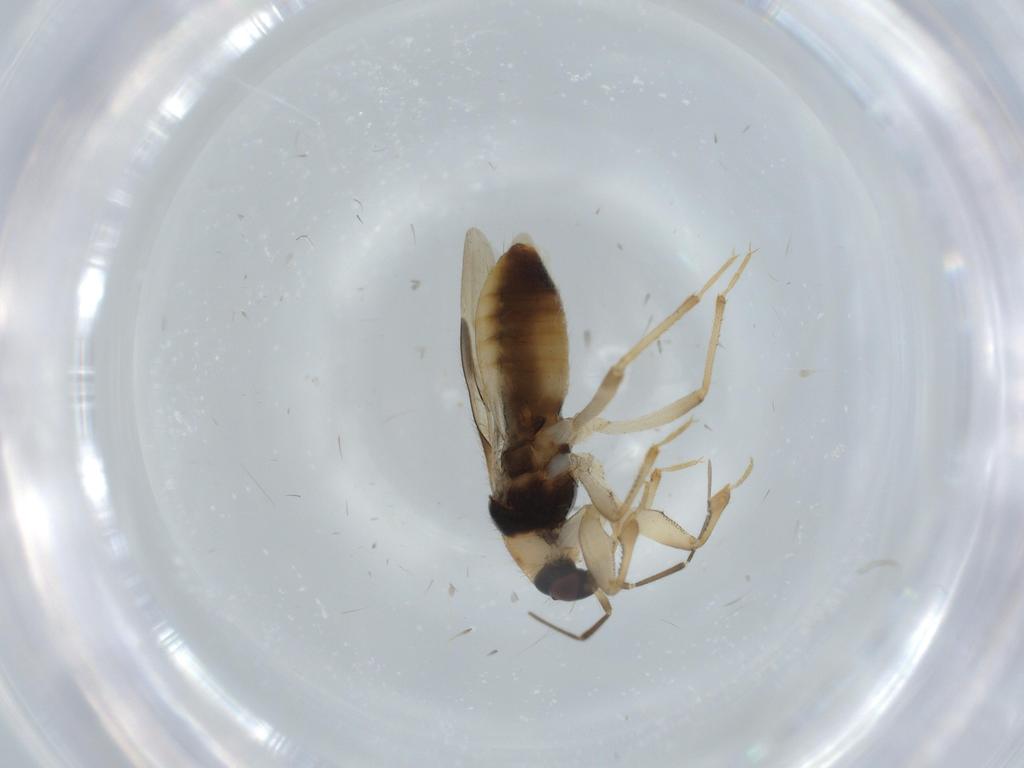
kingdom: Animalia
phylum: Arthropoda
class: Insecta
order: Hemiptera
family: Nabidae
